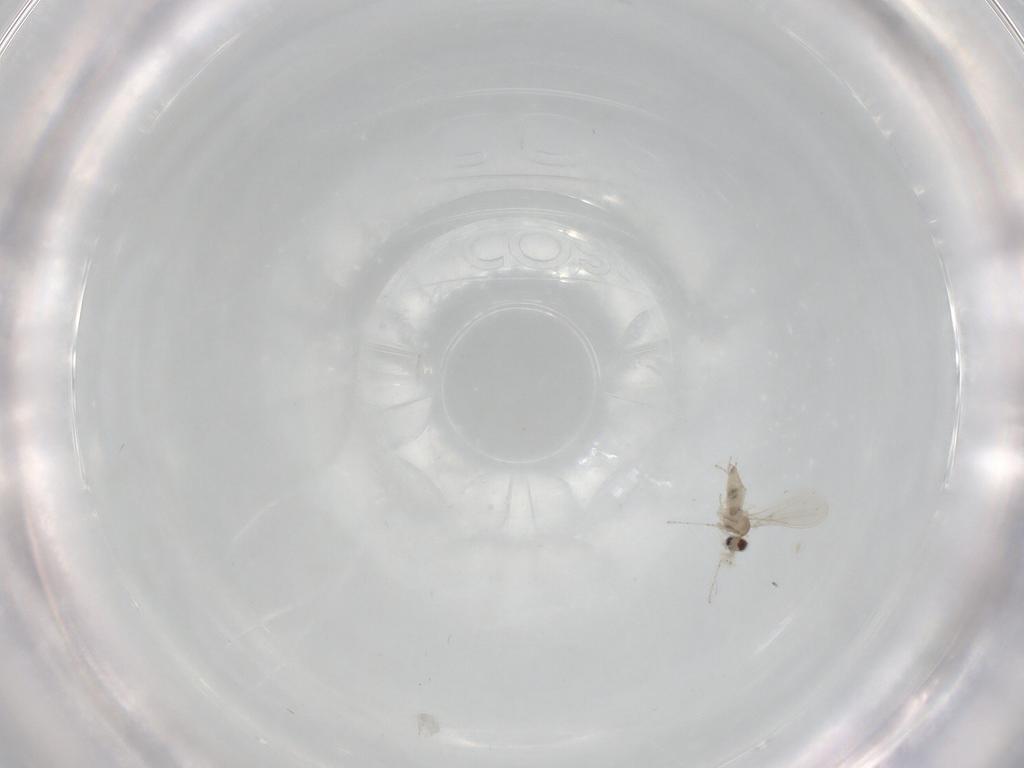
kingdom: Animalia
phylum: Arthropoda
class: Insecta
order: Diptera
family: Cecidomyiidae
